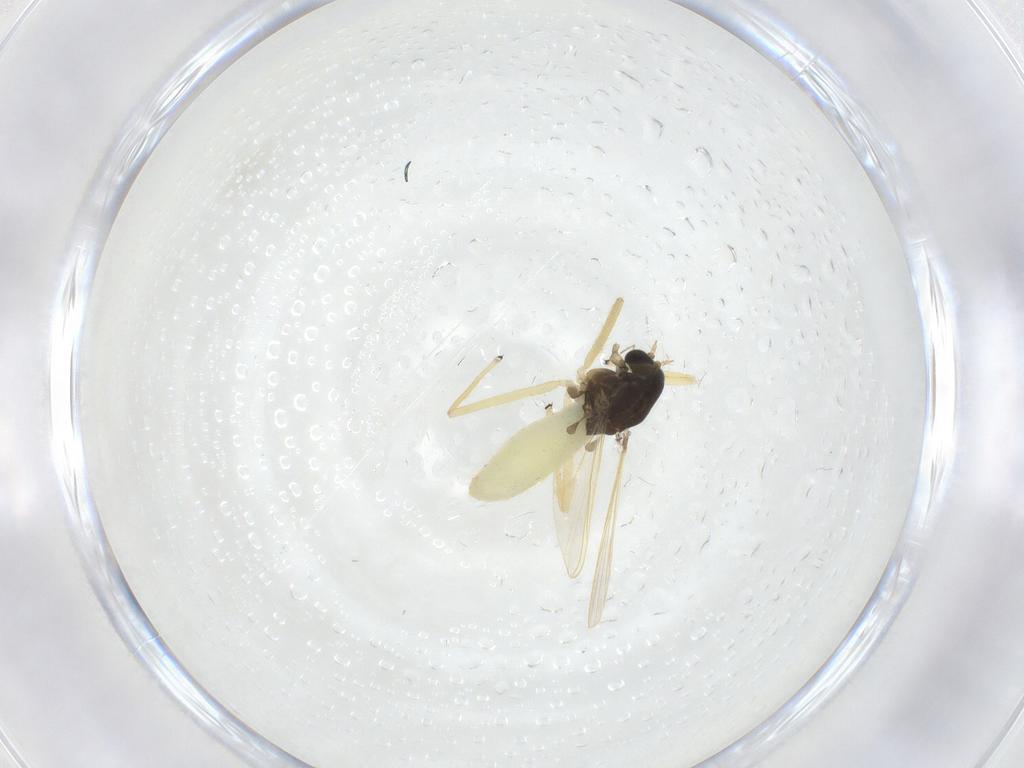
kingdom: Animalia
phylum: Arthropoda
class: Insecta
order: Diptera
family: Chironomidae
